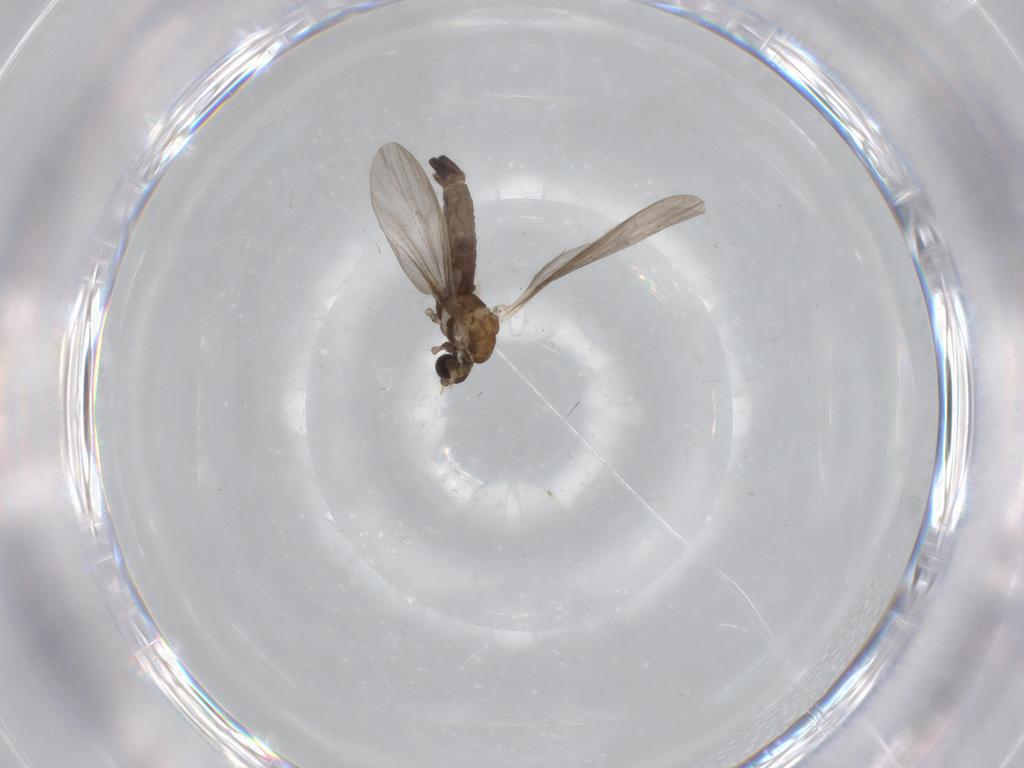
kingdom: Animalia
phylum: Arthropoda
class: Insecta
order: Diptera
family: Limoniidae
